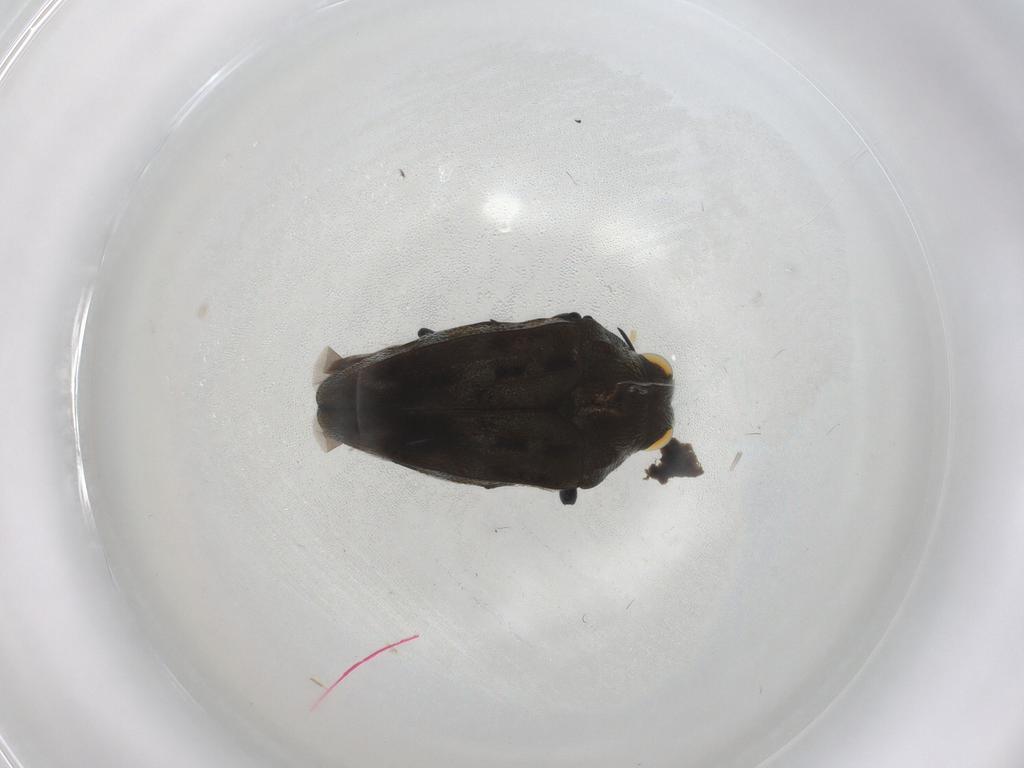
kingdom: Animalia
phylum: Arthropoda
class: Insecta
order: Coleoptera
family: Buprestidae
